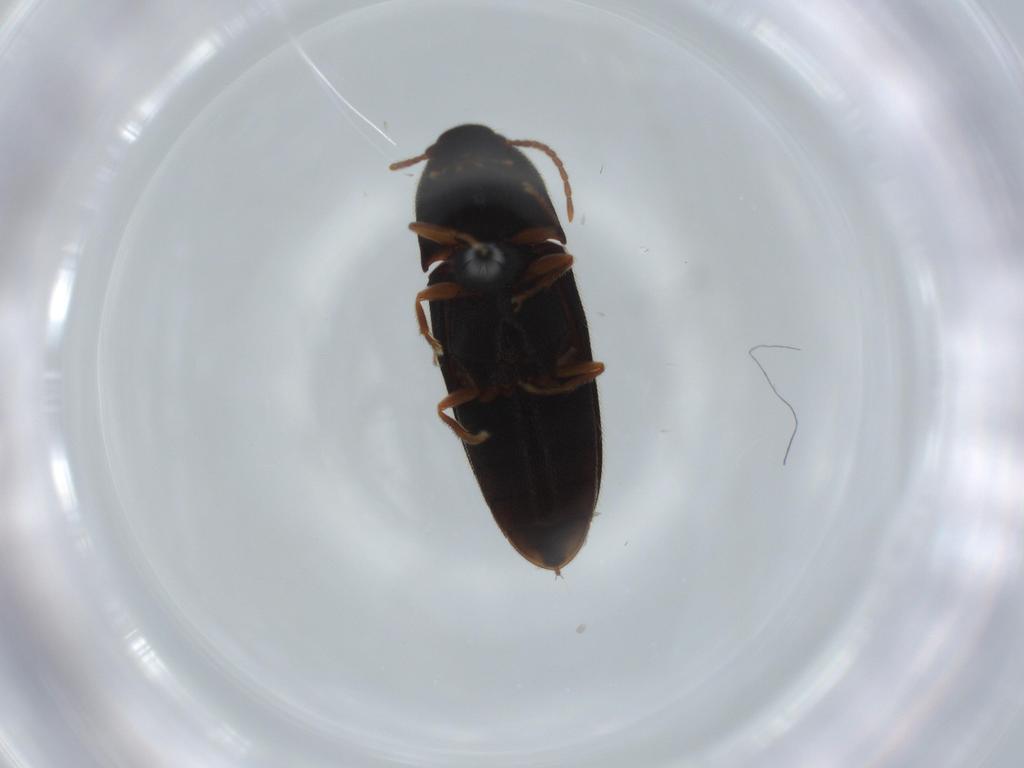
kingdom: Animalia
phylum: Arthropoda
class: Insecta
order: Coleoptera
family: Elateridae
